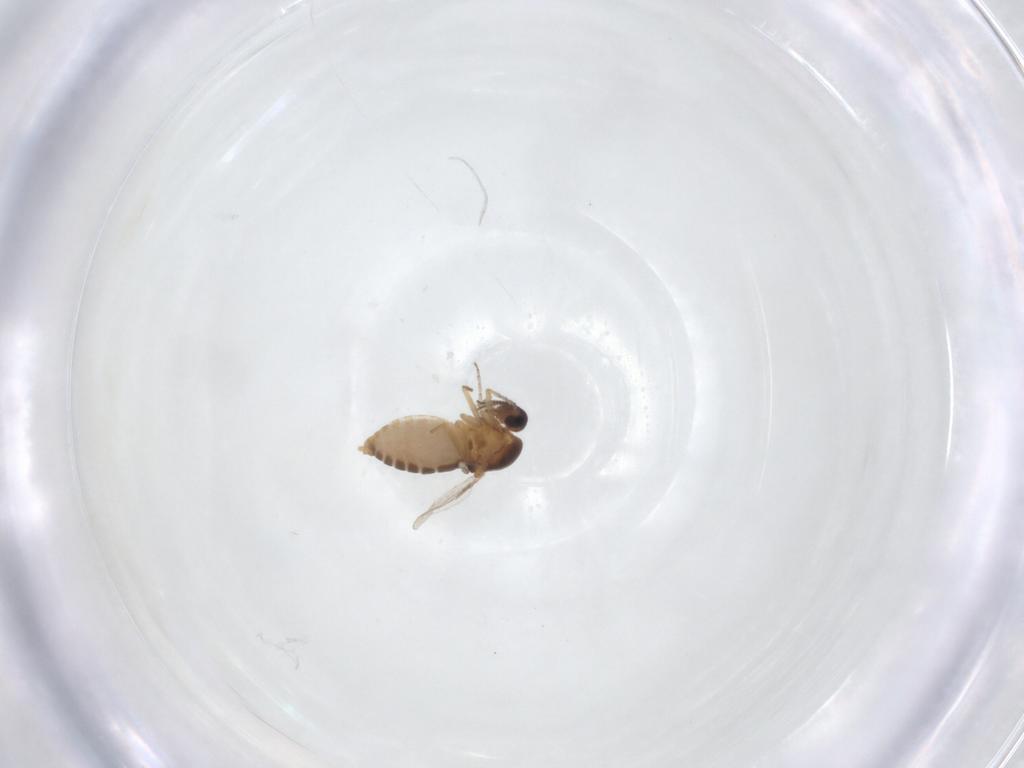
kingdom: Animalia
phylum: Arthropoda
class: Insecta
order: Diptera
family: Ceratopogonidae
